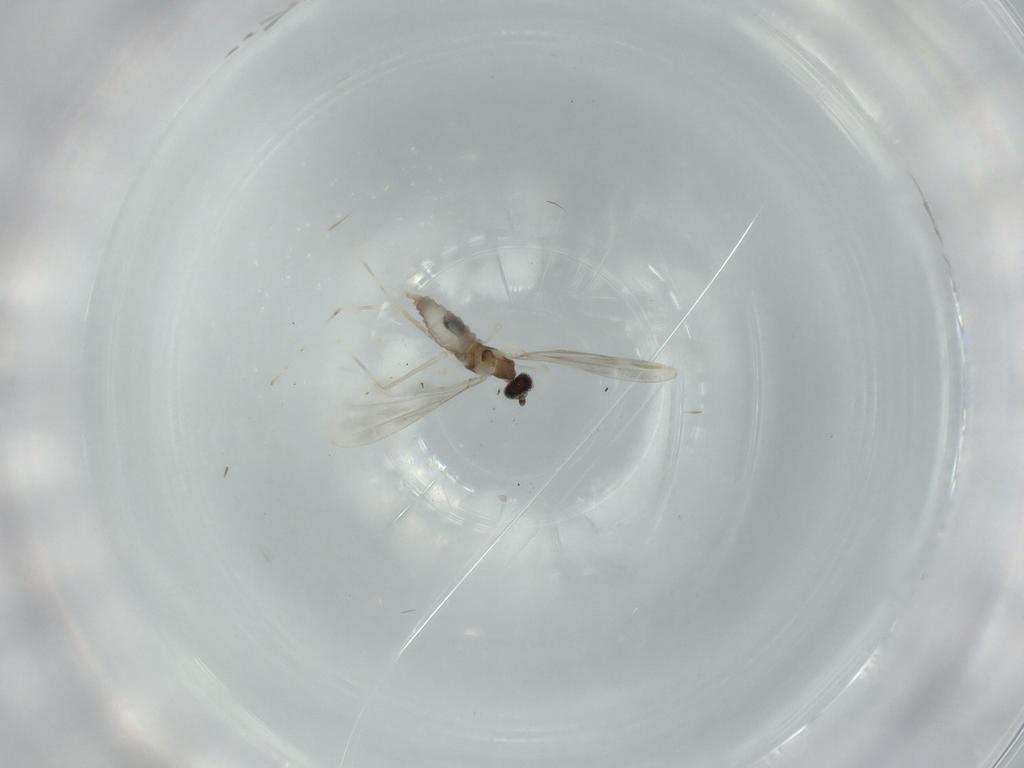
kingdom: Animalia
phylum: Arthropoda
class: Insecta
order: Diptera
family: Cecidomyiidae
